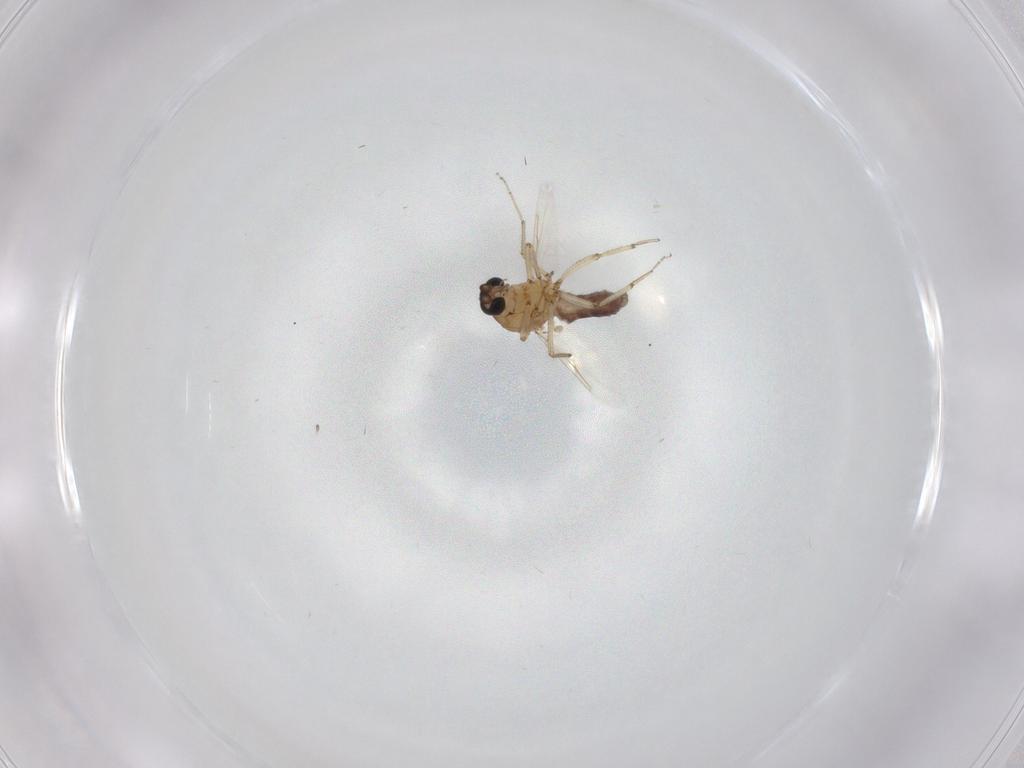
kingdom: Animalia
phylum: Arthropoda
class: Insecta
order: Diptera
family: Ceratopogonidae
